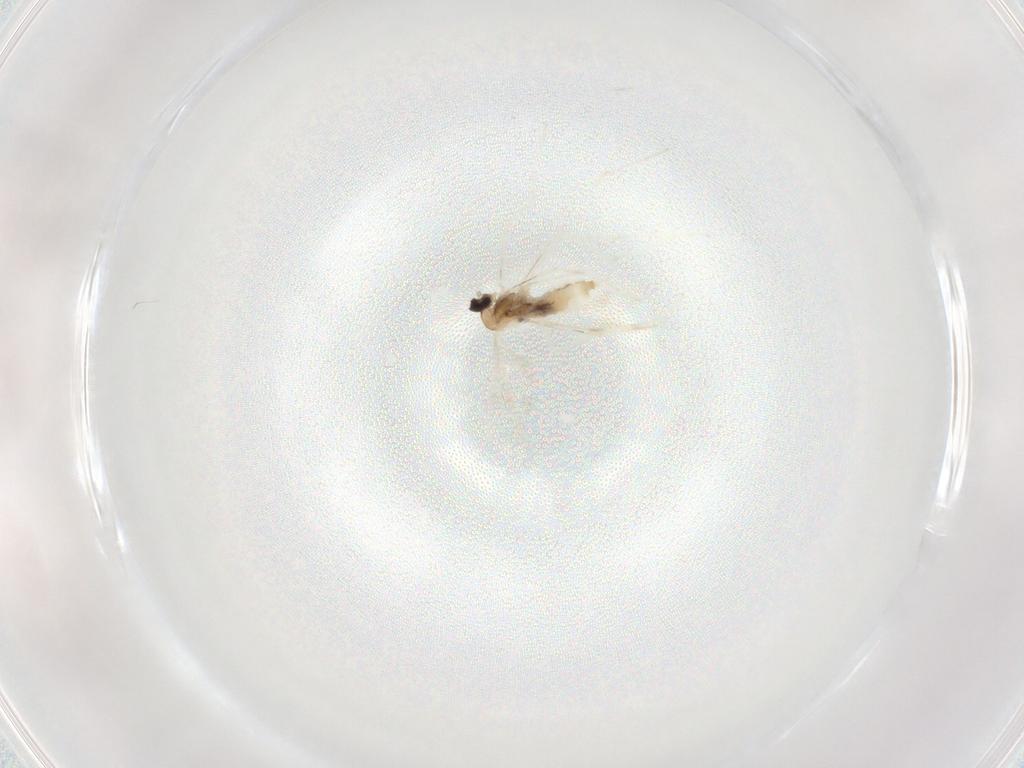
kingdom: Animalia
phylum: Arthropoda
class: Insecta
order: Diptera
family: Cecidomyiidae
